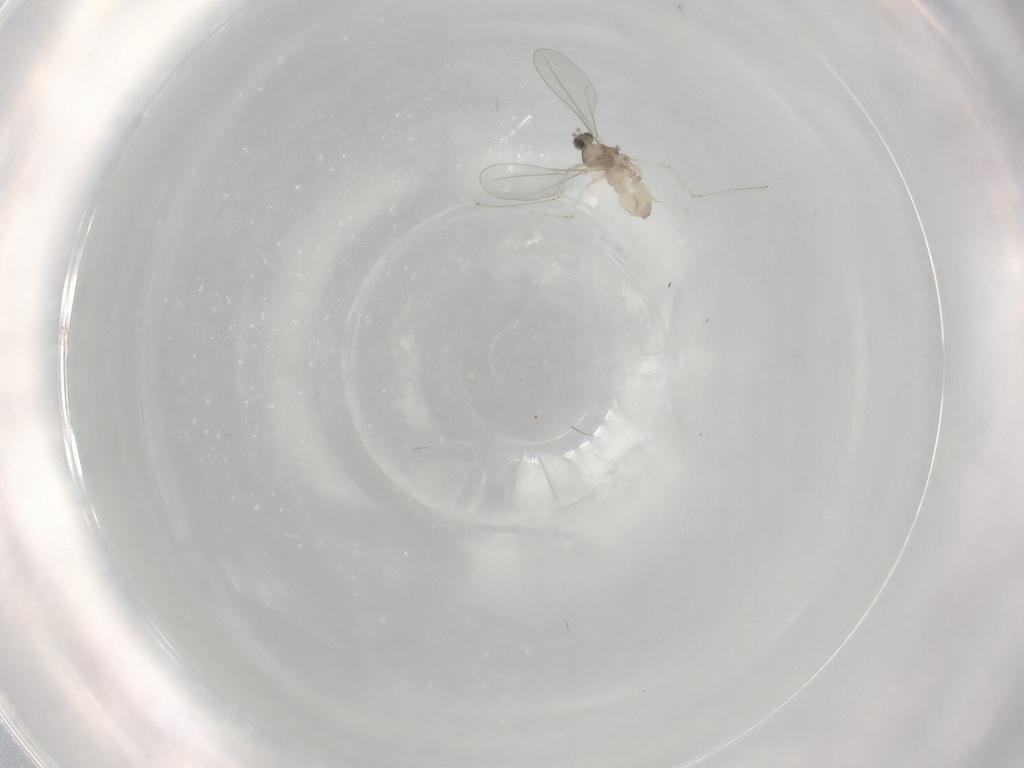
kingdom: Animalia
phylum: Arthropoda
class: Insecta
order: Diptera
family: Cecidomyiidae
